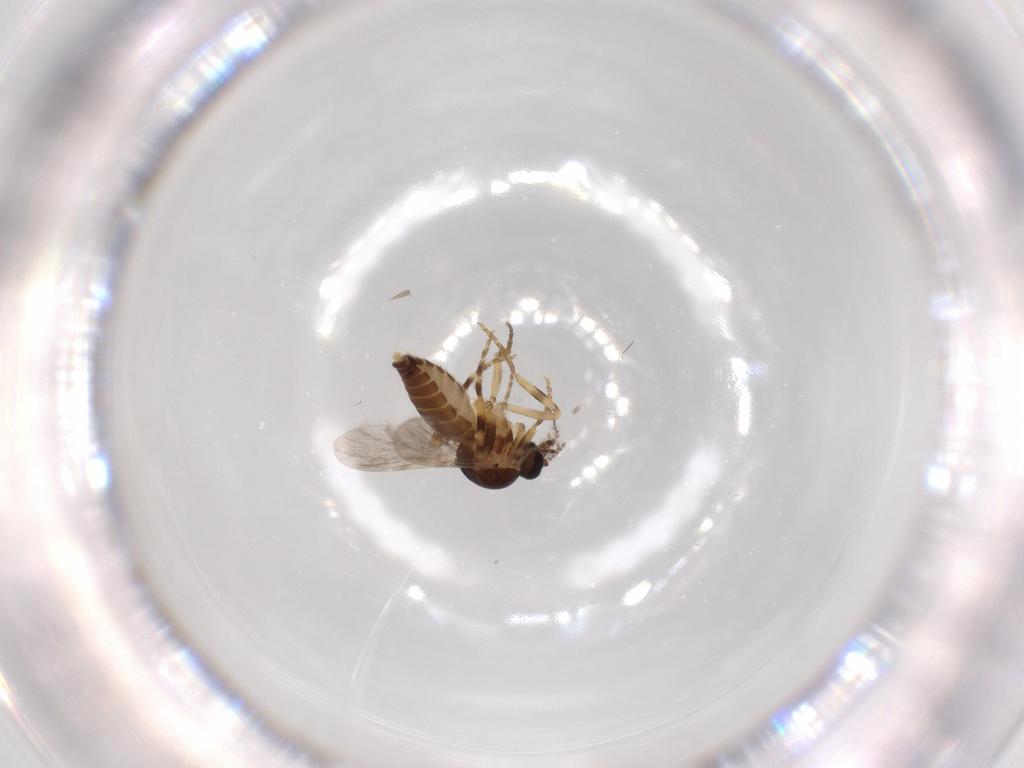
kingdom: Animalia
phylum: Arthropoda
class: Insecta
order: Diptera
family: Ceratopogonidae
